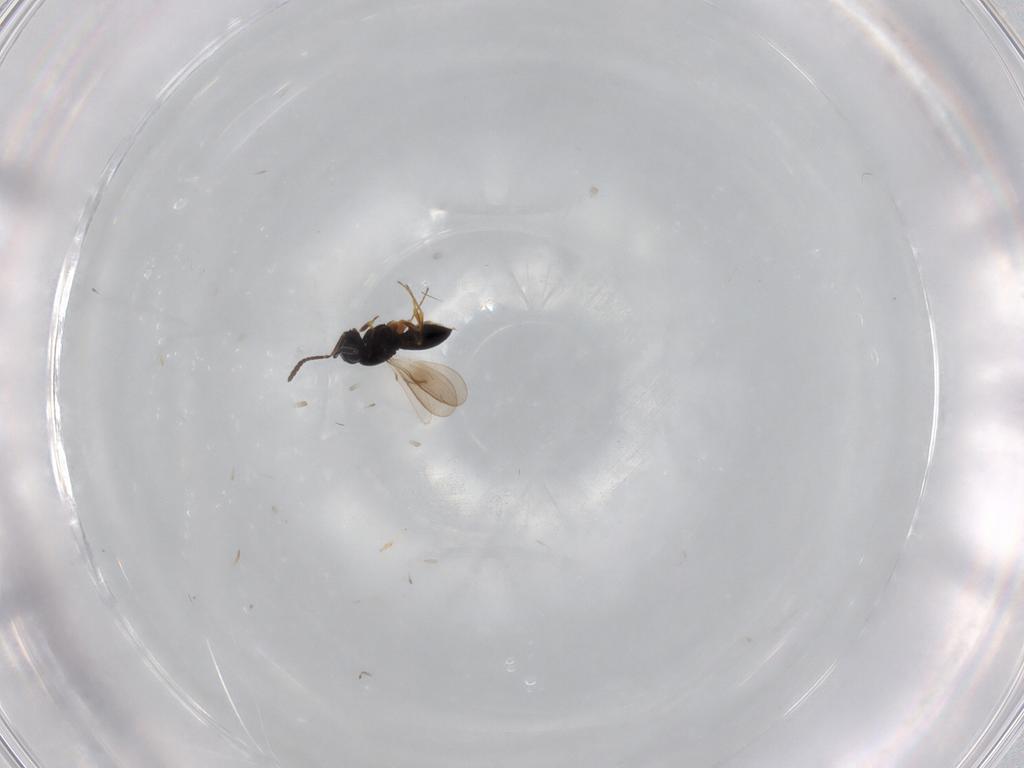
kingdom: Animalia
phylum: Arthropoda
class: Insecta
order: Hymenoptera
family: Scelionidae
